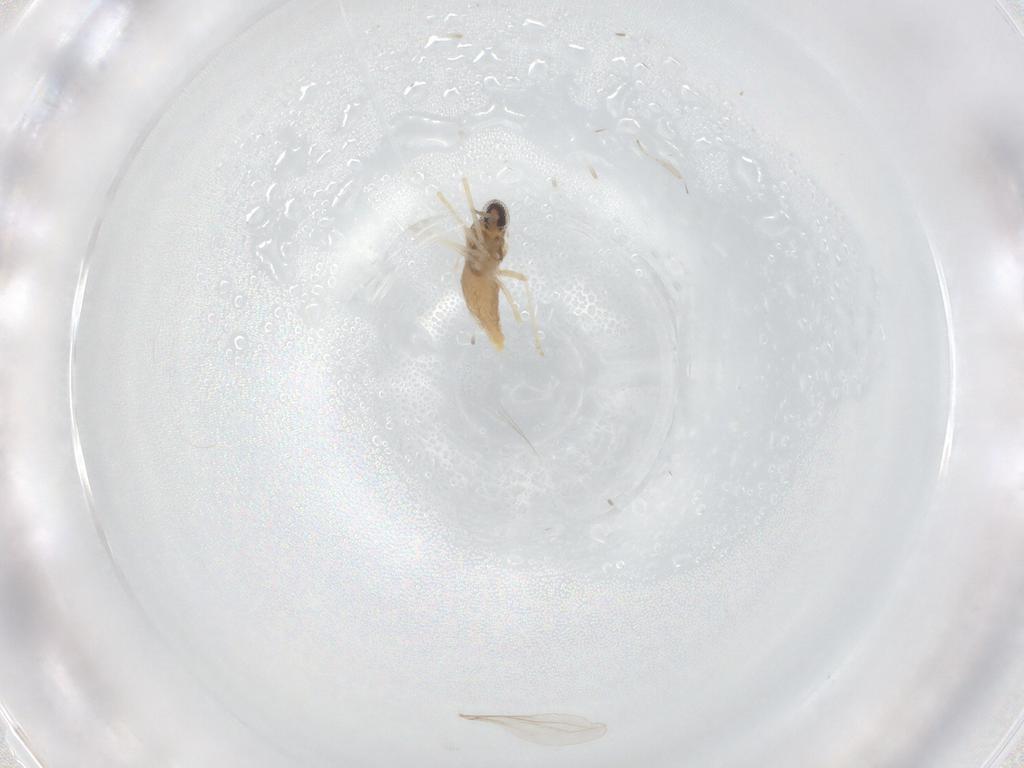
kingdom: Animalia
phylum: Arthropoda
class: Insecta
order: Diptera
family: Cecidomyiidae
